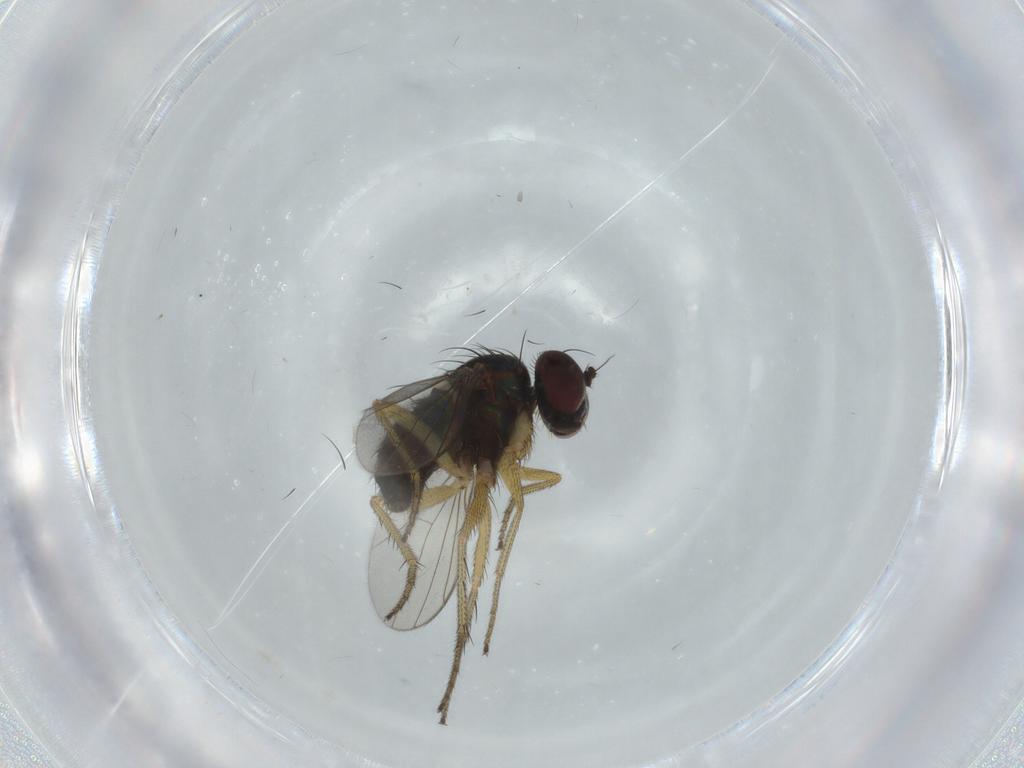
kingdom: Animalia
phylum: Arthropoda
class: Insecta
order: Diptera
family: Dolichopodidae
